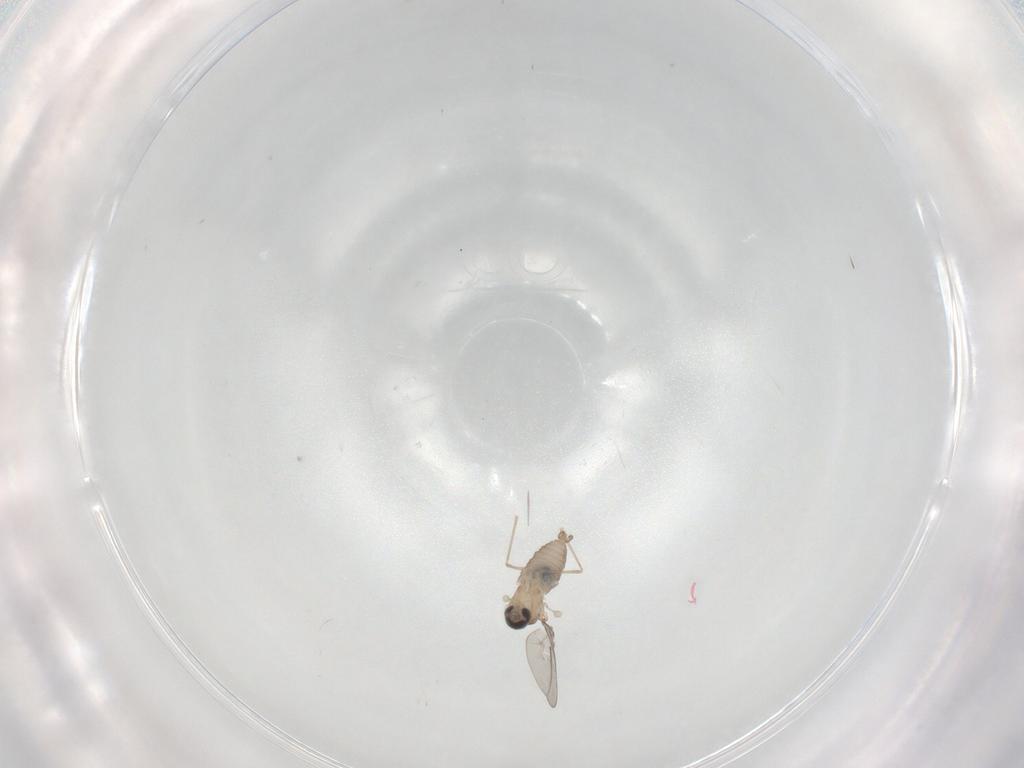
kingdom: Animalia
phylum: Arthropoda
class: Insecta
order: Diptera
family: Cecidomyiidae
